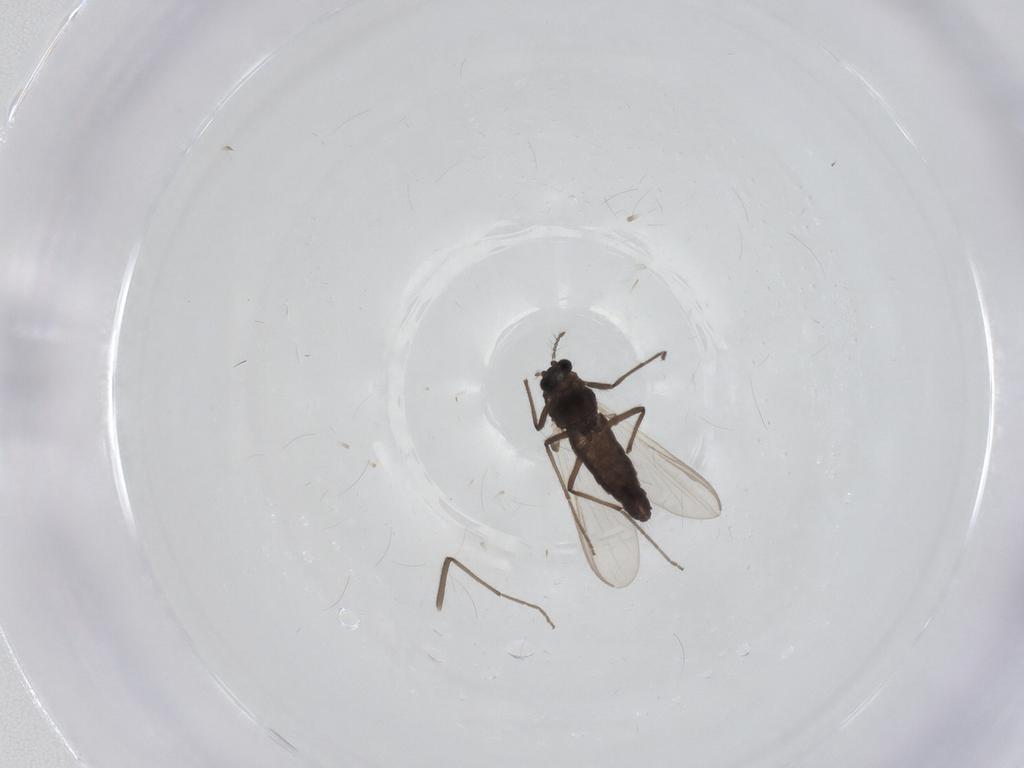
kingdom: Animalia
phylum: Arthropoda
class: Insecta
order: Diptera
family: Chironomidae
